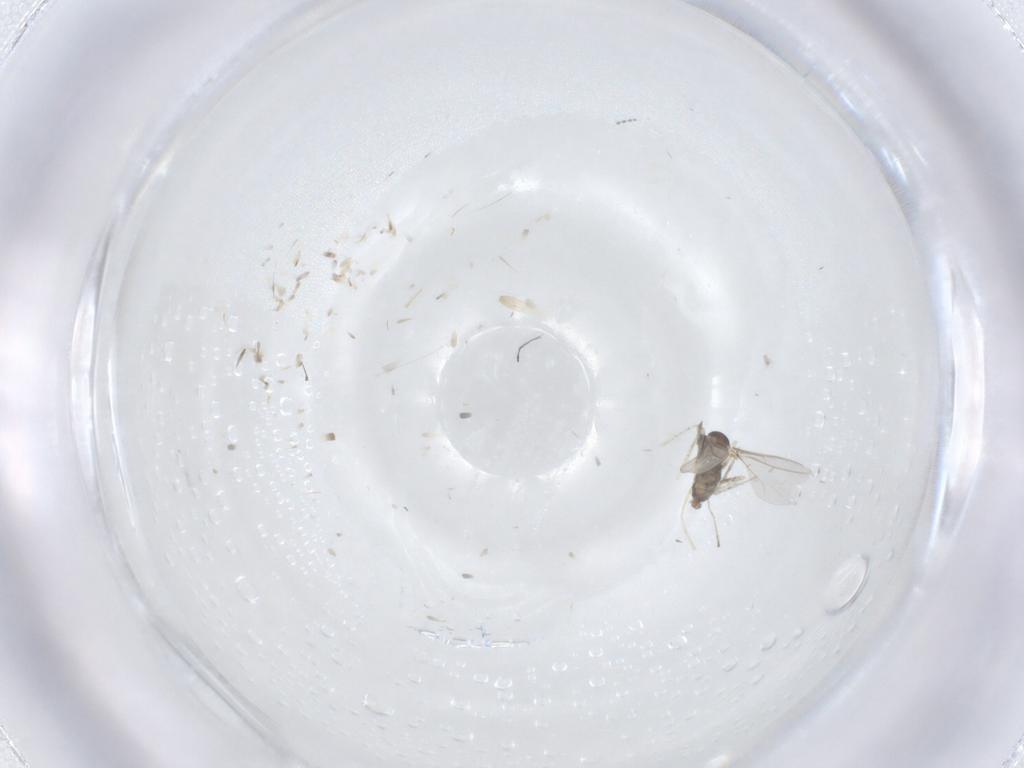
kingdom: Animalia
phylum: Arthropoda
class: Insecta
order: Diptera
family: Cecidomyiidae
